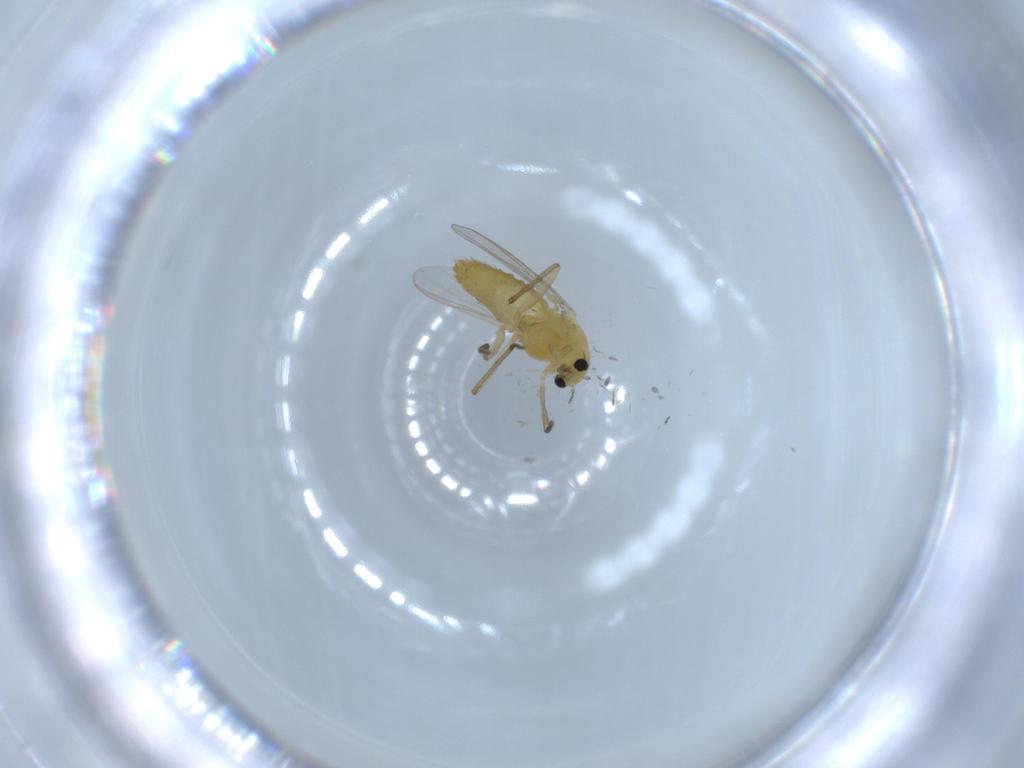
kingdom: Animalia
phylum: Arthropoda
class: Insecta
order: Diptera
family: Chironomidae
